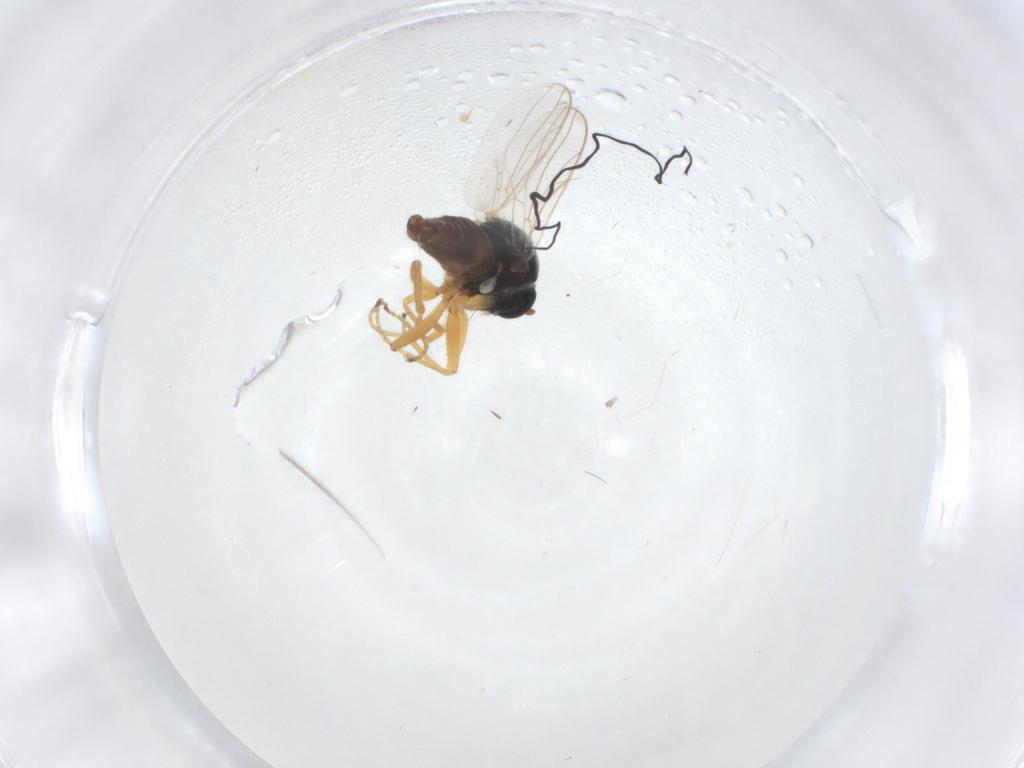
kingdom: Animalia
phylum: Arthropoda
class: Insecta
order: Diptera
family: Hybotidae
